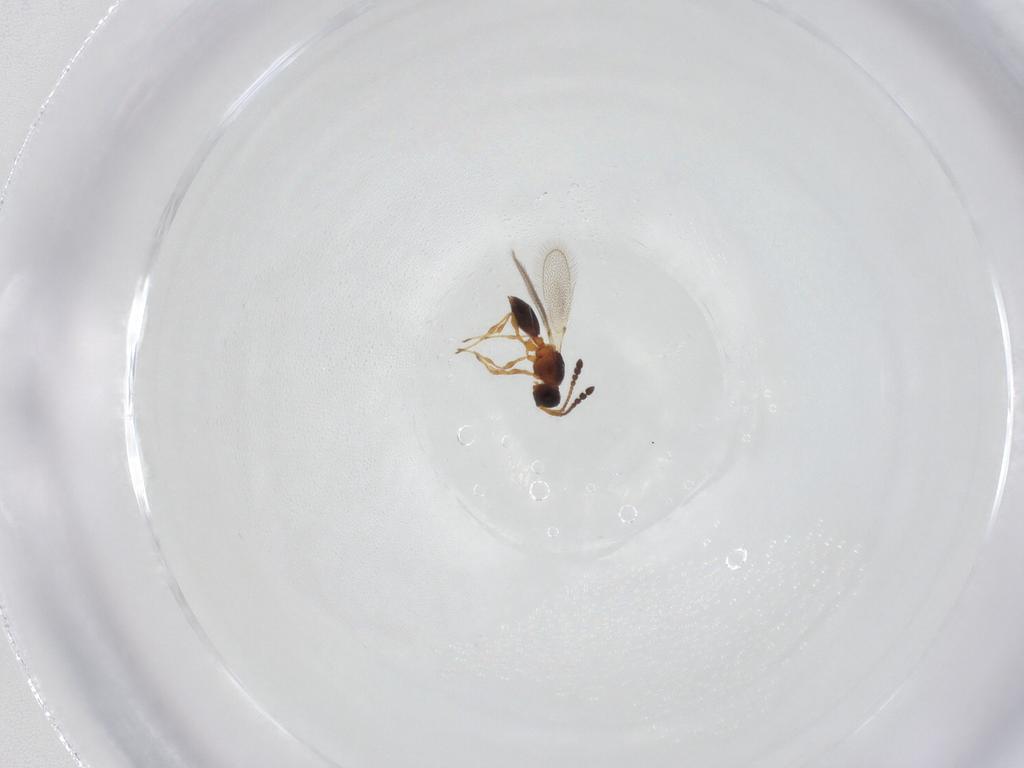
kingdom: Animalia
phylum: Arthropoda
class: Insecta
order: Hymenoptera
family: Diapriidae
